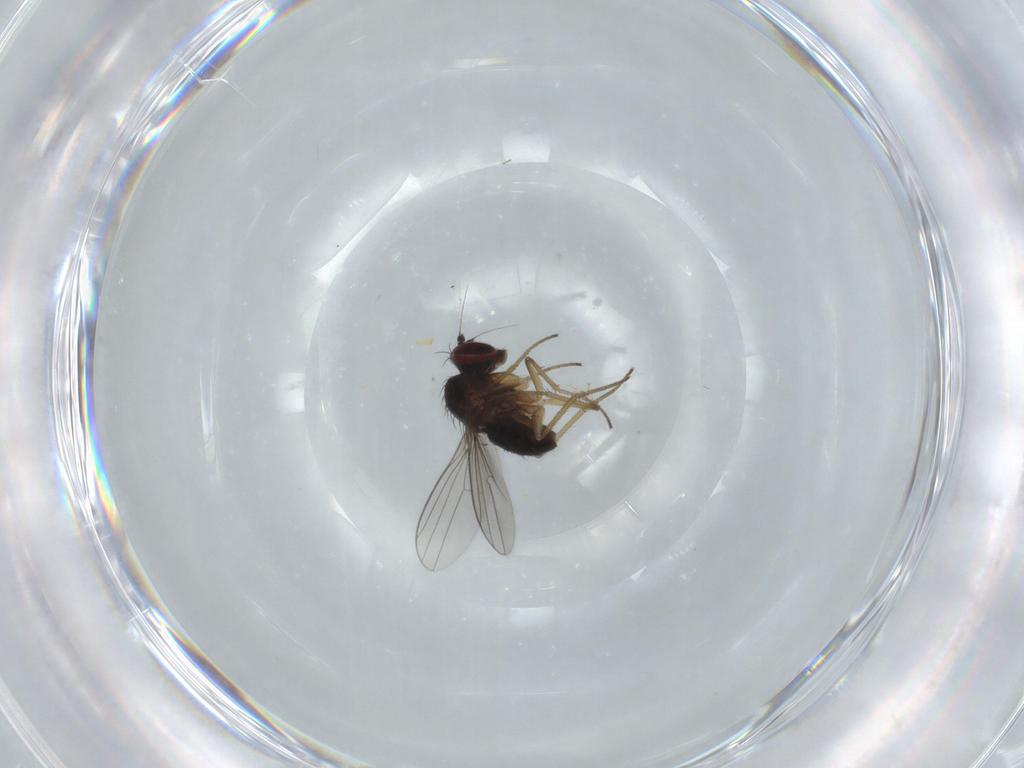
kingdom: Animalia
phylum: Arthropoda
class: Insecta
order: Diptera
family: Dolichopodidae
